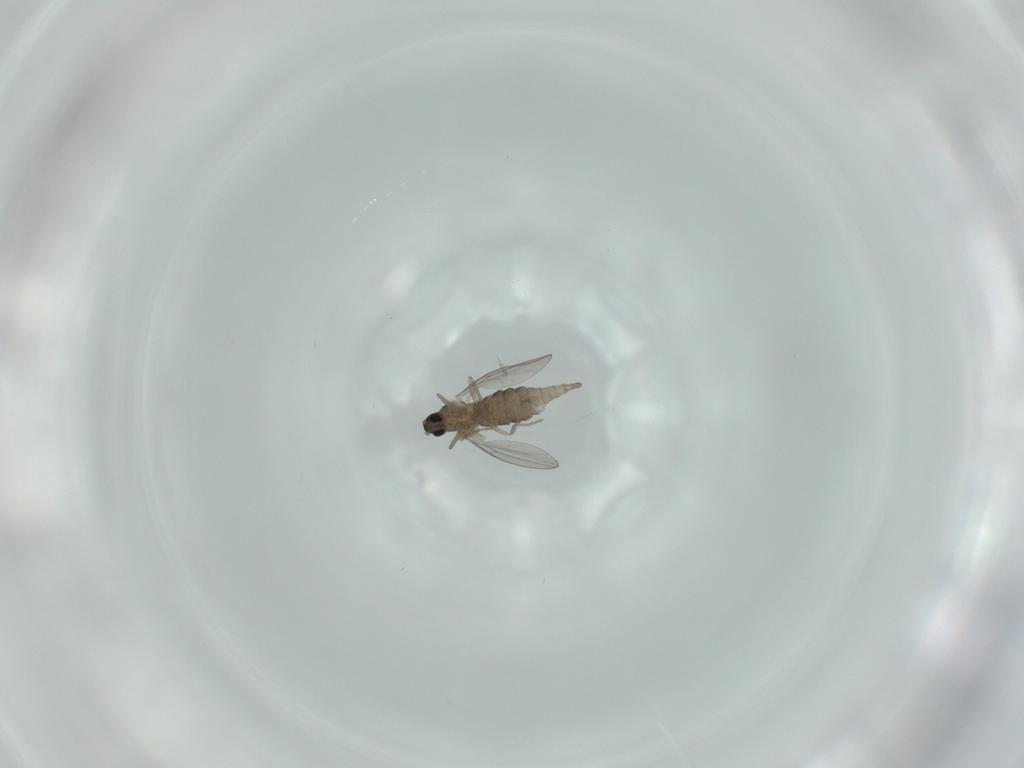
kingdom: Animalia
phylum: Arthropoda
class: Insecta
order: Diptera
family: Cecidomyiidae
